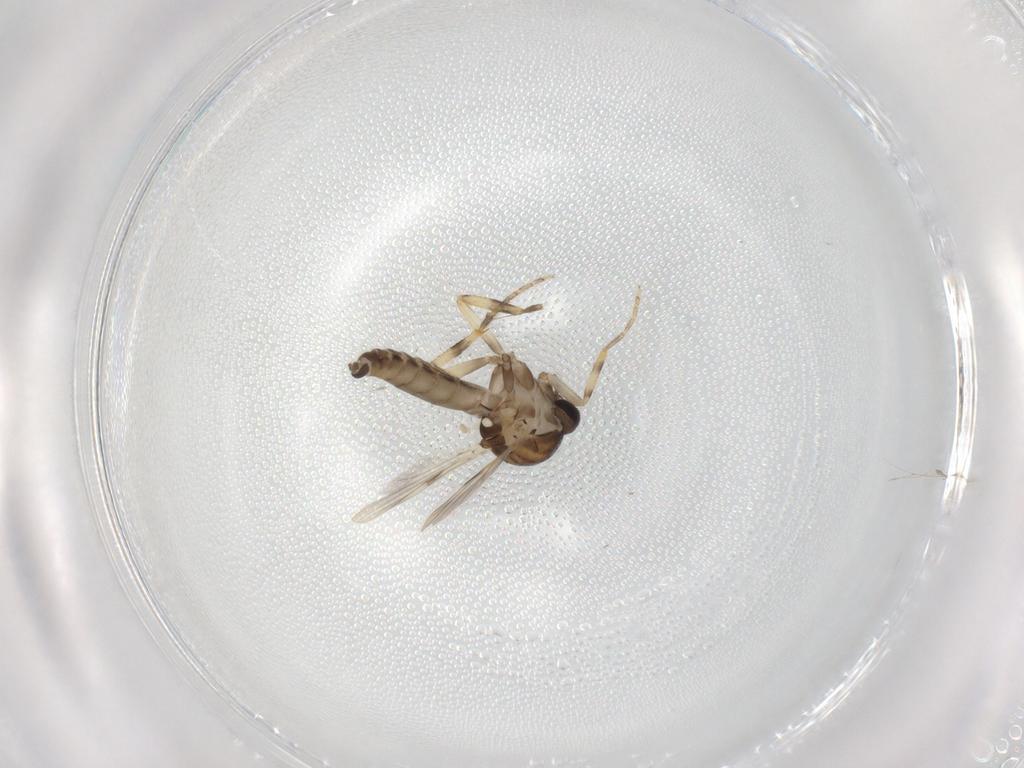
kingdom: Animalia
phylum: Arthropoda
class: Insecta
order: Diptera
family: Ceratopogonidae
